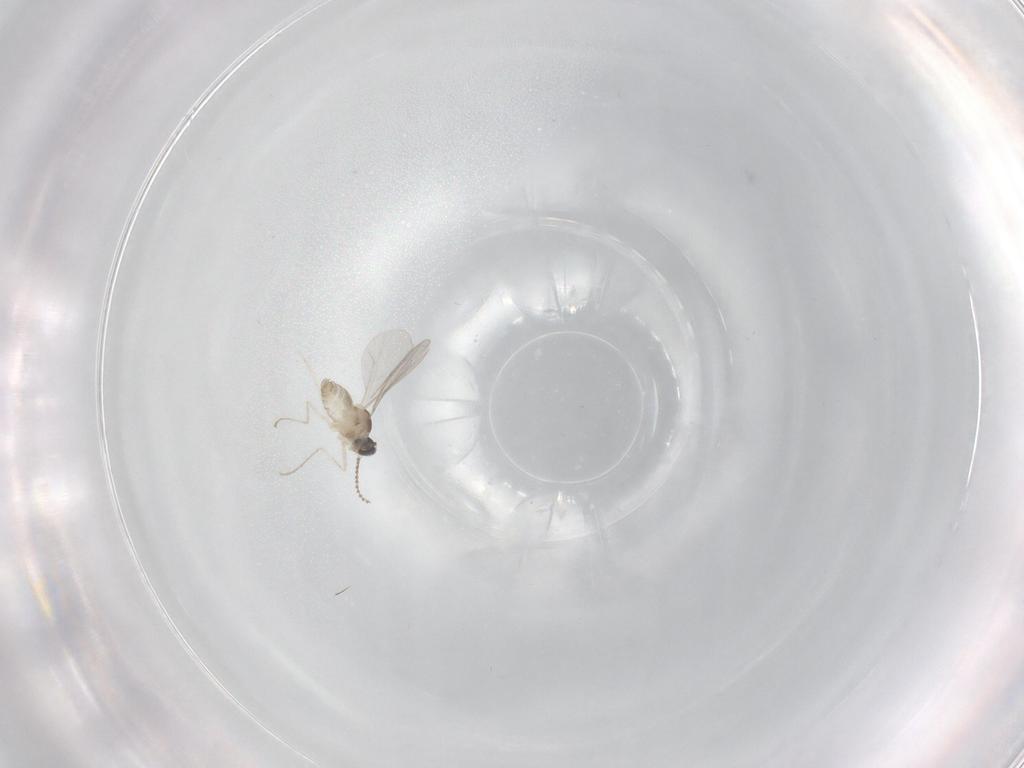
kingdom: Animalia
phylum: Arthropoda
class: Insecta
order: Diptera
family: Cecidomyiidae
